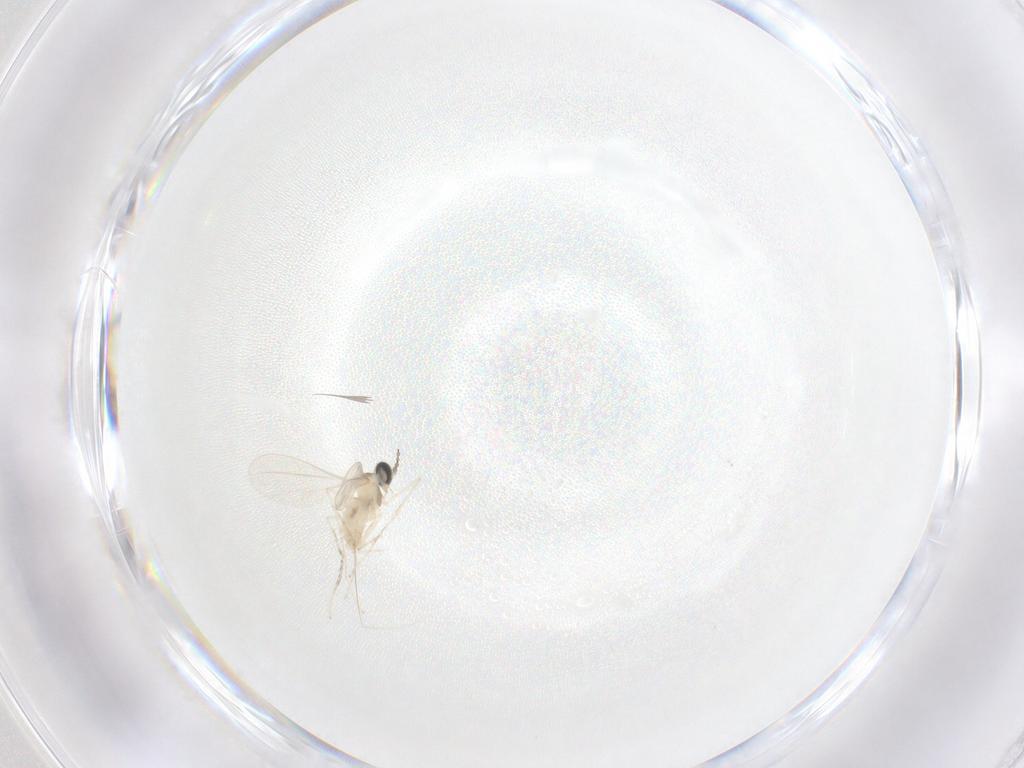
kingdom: Animalia
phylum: Arthropoda
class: Insecta
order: Diptera
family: Cecidomyiidae
